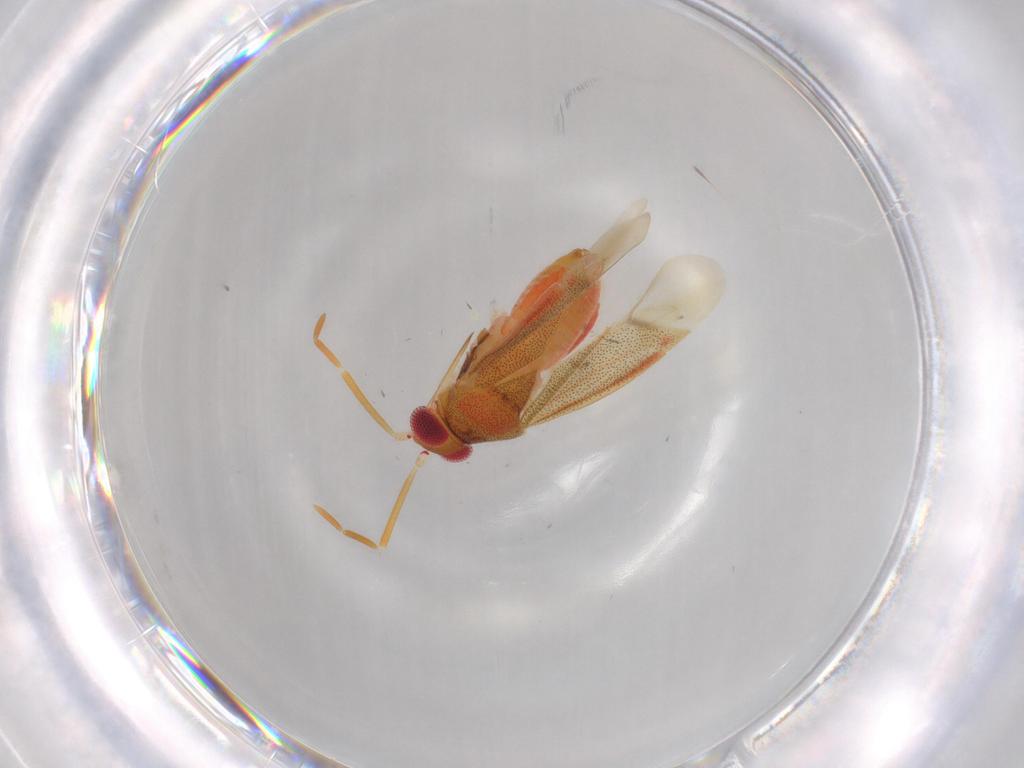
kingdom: Animalia
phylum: Arthropoda
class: Insecta
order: Hemiptera
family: Miridae
